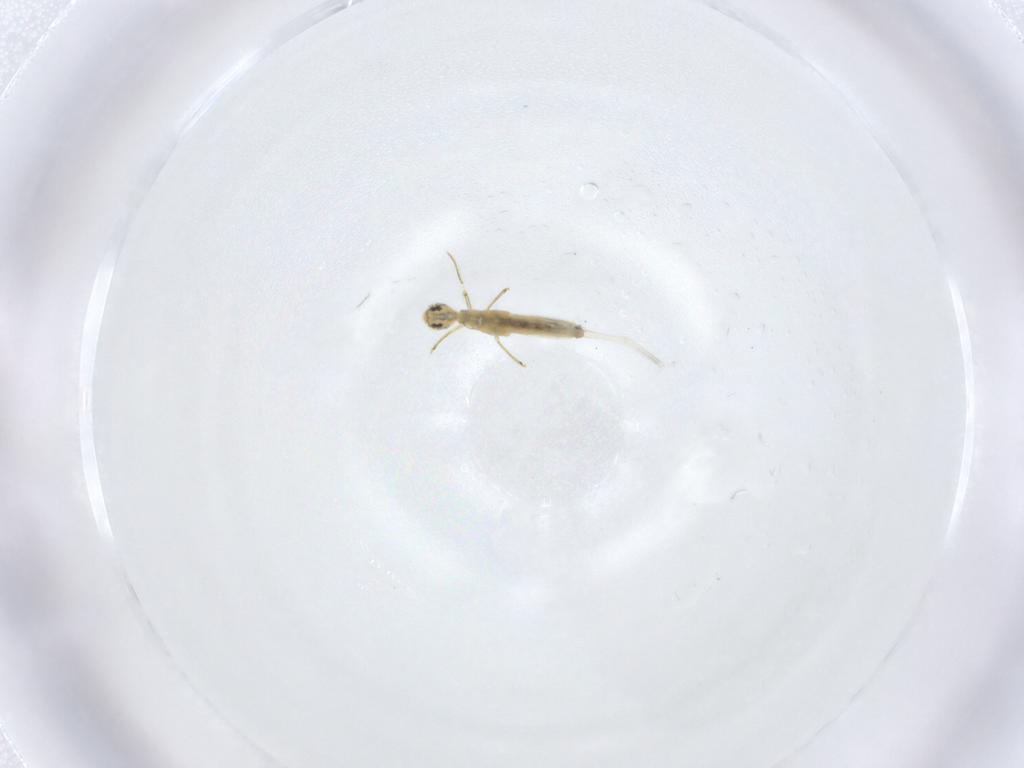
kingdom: Animalia
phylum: Arthropoda
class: Collembola
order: Entomobryomorpha
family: Entomobryidae
